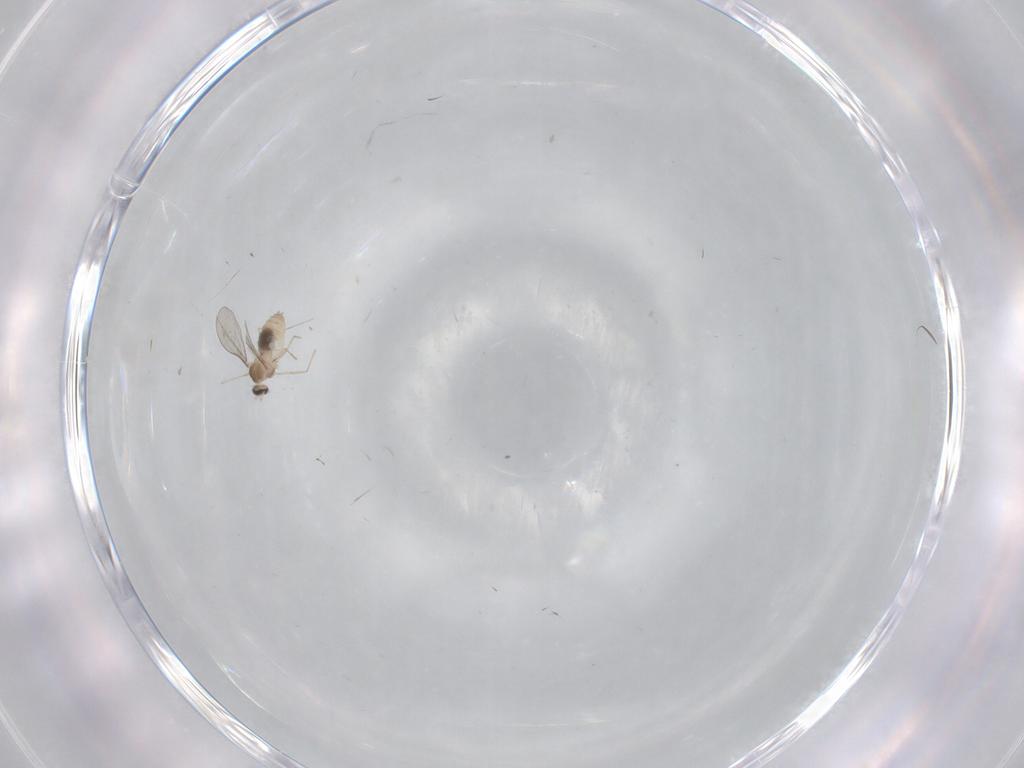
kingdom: Animalia
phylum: Arthropoda
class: Insecta
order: Diptera
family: Cecidomyiidae
